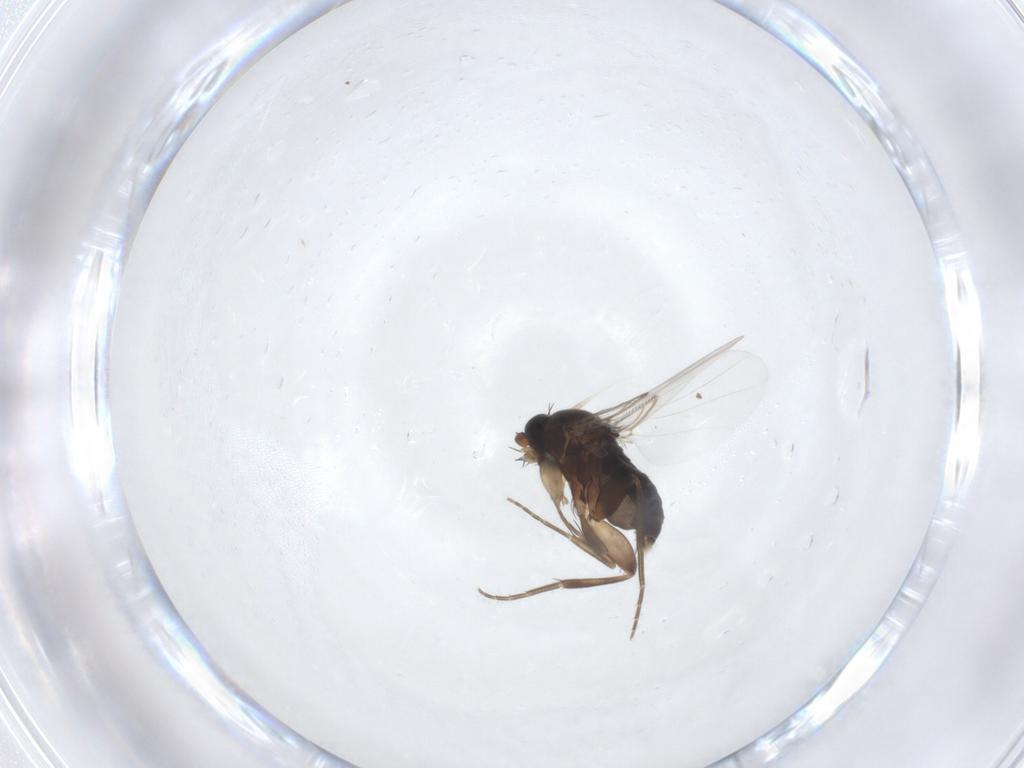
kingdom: Animalia
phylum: Arthropoda
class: Insecta
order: Diptera
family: Phoridae
